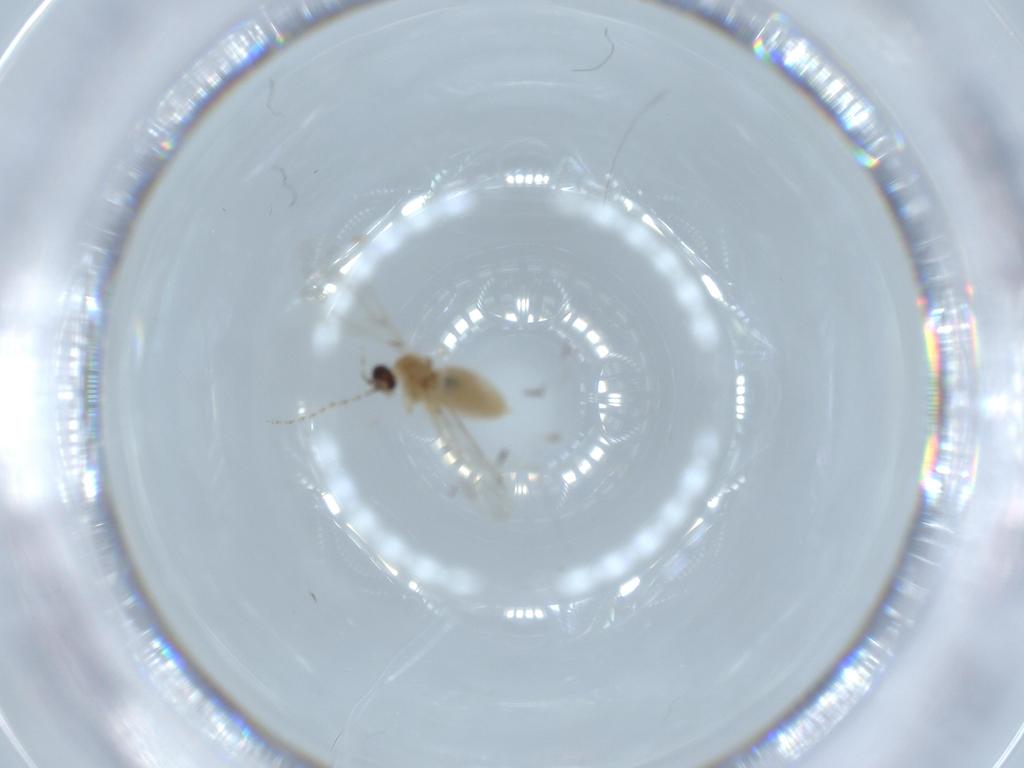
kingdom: Animalia
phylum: Arthropoda
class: Insecta
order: Diptera
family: Cecidomyiidae
